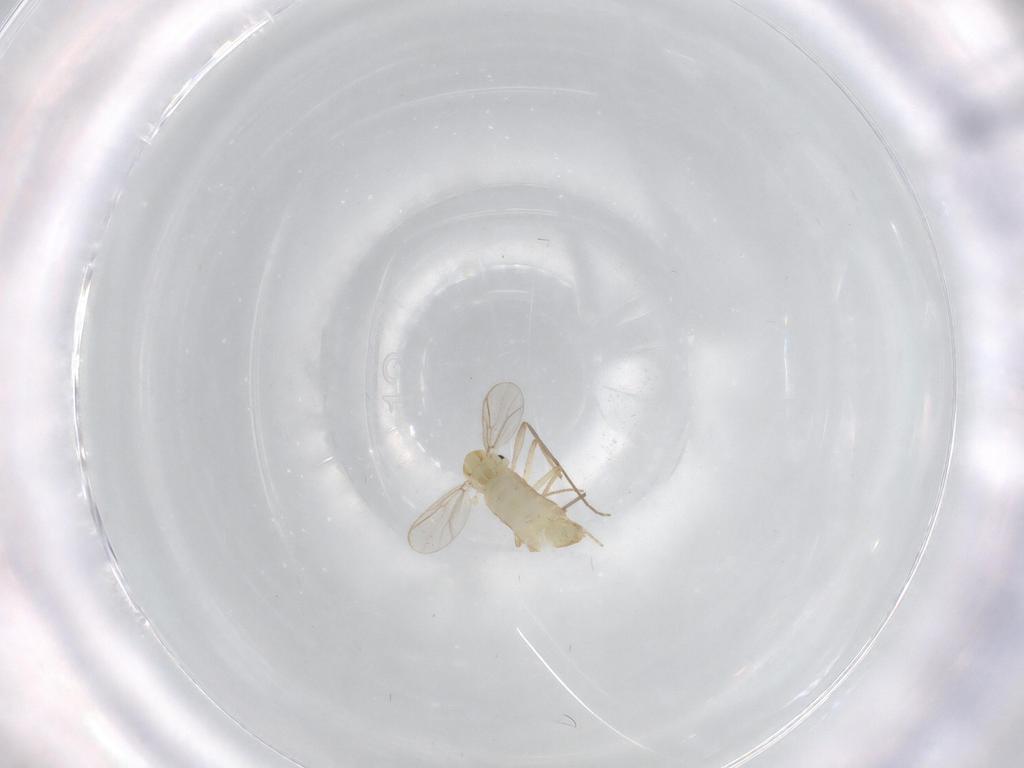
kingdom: Animalia
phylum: Arthropoda
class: Insecta
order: Diptera
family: Chironomidae
